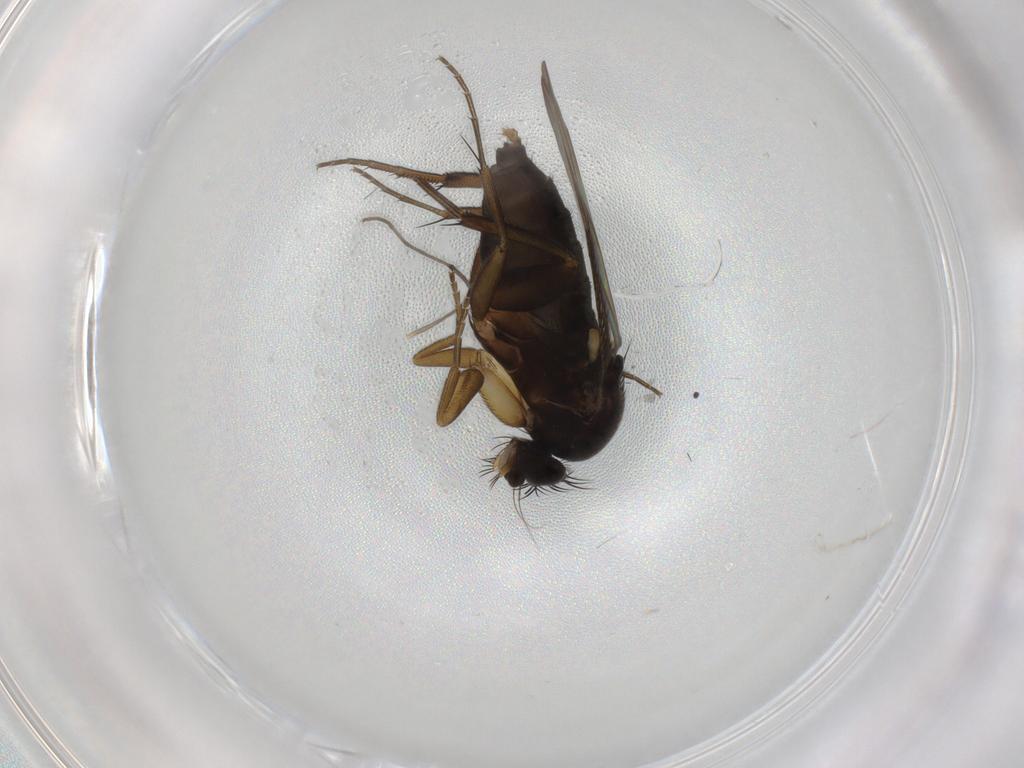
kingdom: Animalia
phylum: Arthropoda
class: Insecta
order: Diptera
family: Phoridae
